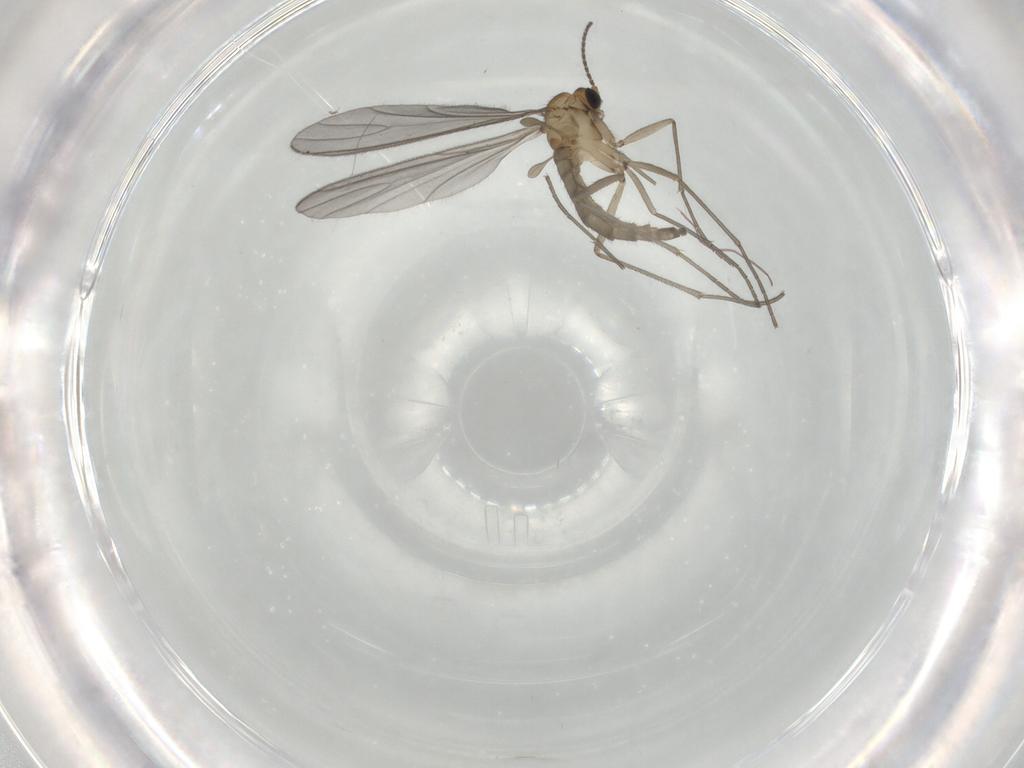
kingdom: Animalia
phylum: Arthropoda
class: Insecta
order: Diptera
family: Sciaridae
